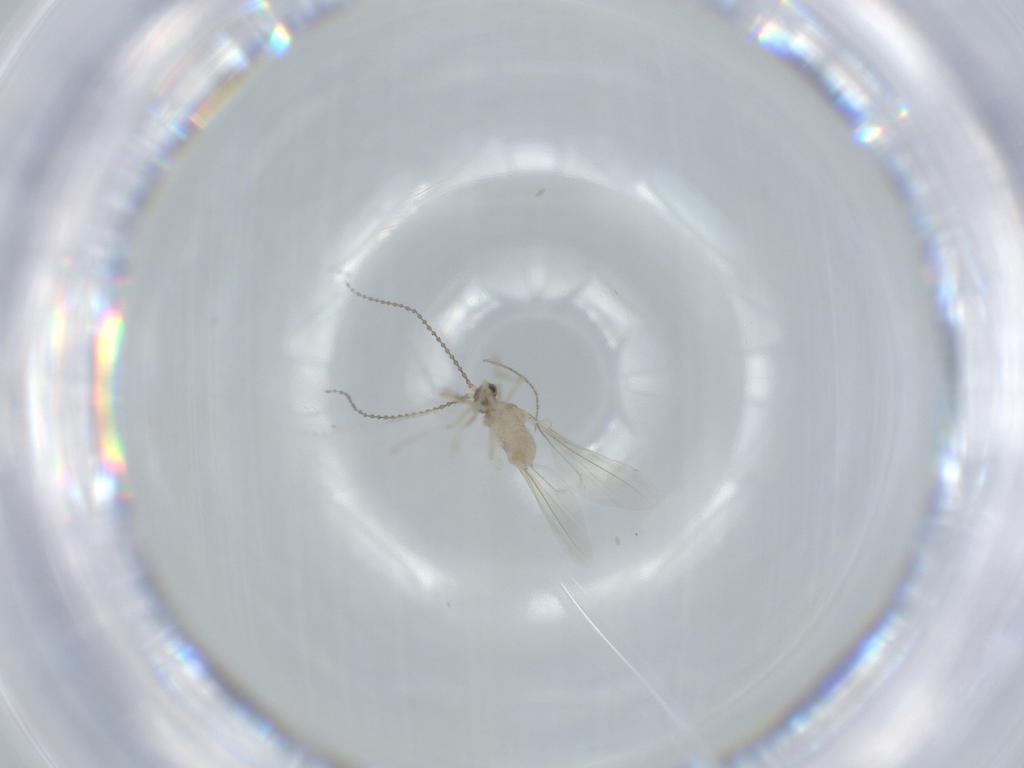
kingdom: Animalia
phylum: Arthropoda
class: Insecta
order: Diptera
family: Cecidomyiidae
